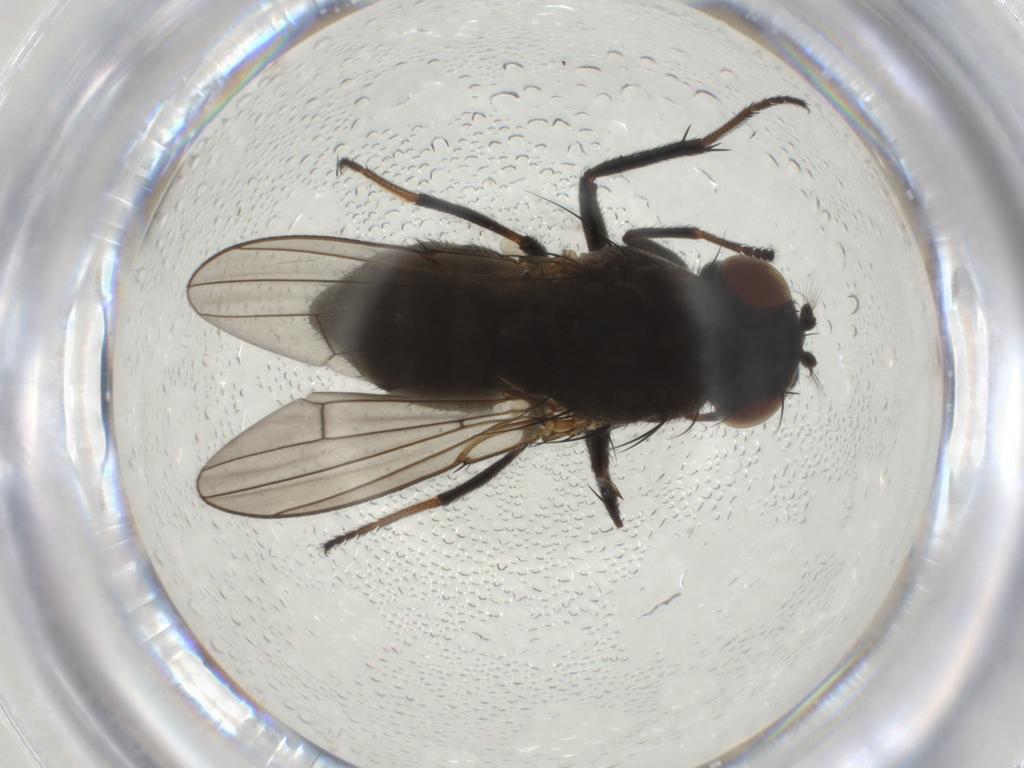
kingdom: Animalia
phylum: Arthropoda
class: Insecta
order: Diptera
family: Ephydridae
